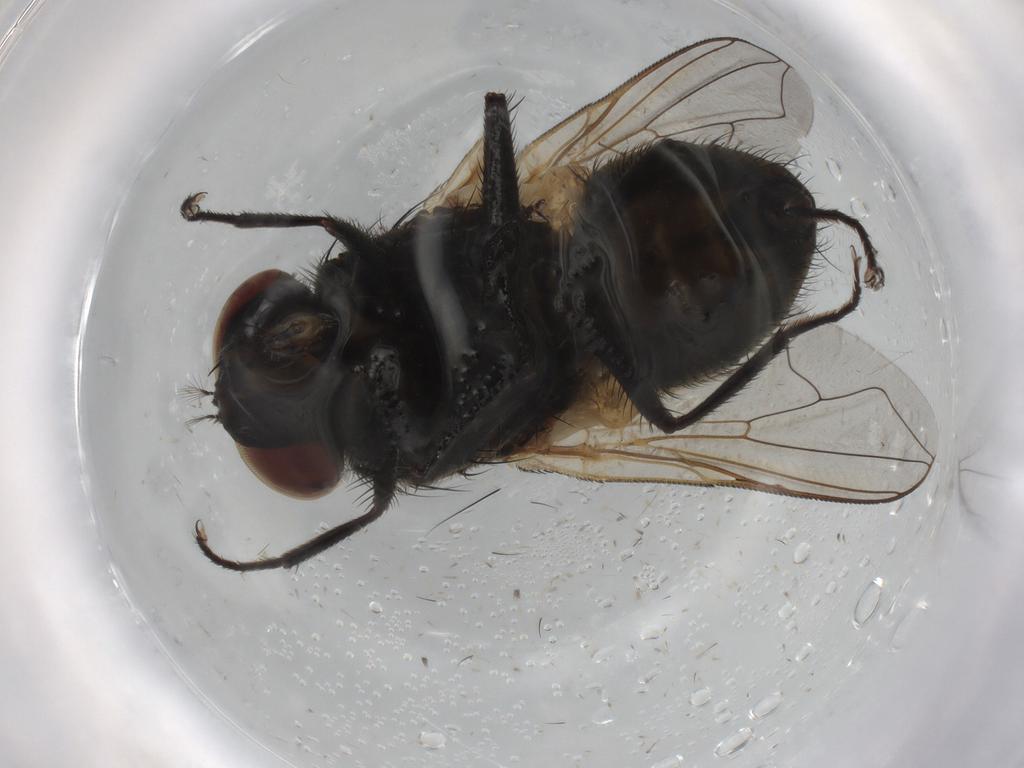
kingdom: Animalia
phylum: Arthropoda
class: Insecta
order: Diptera
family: Muscidae
